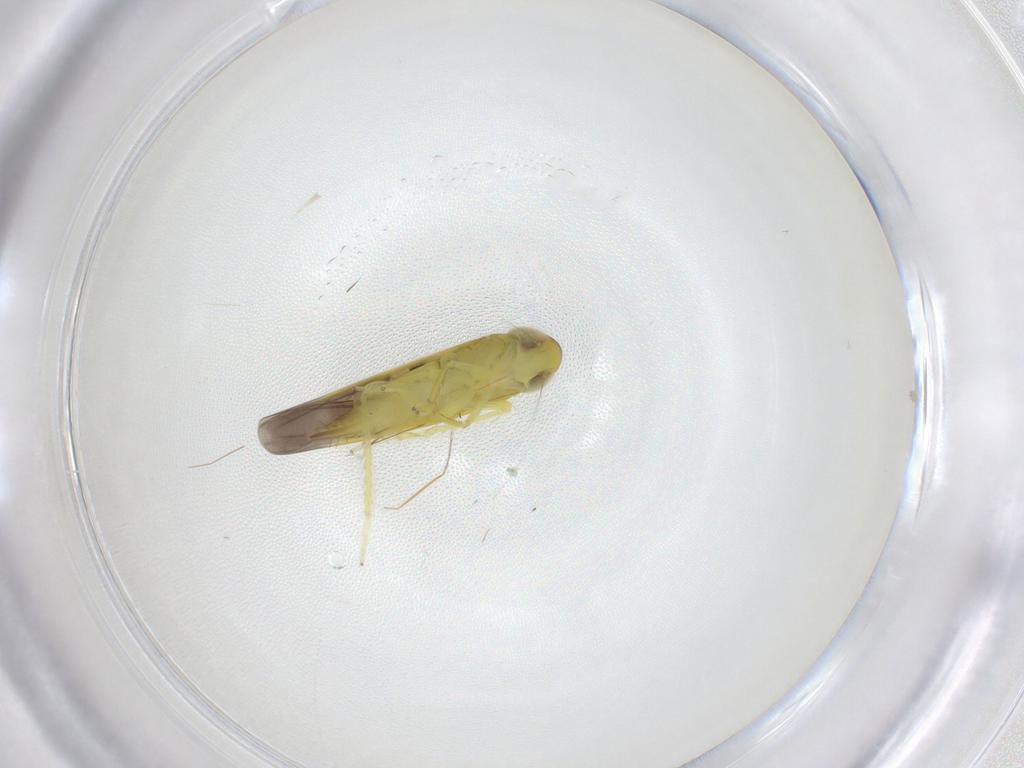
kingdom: Animalia
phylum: Arthropoda
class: Insecta
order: Hemiptera
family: Cicadellidae
